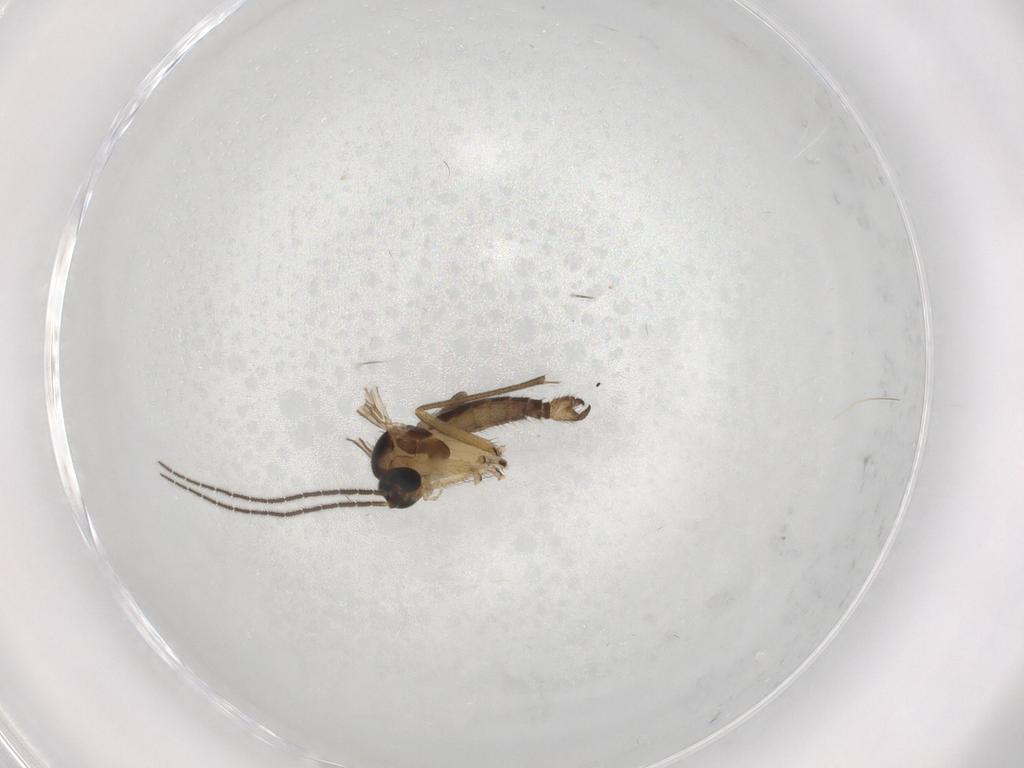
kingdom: Animalia
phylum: Arthropoda
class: Insecta
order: Diptera
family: Sciaridae
